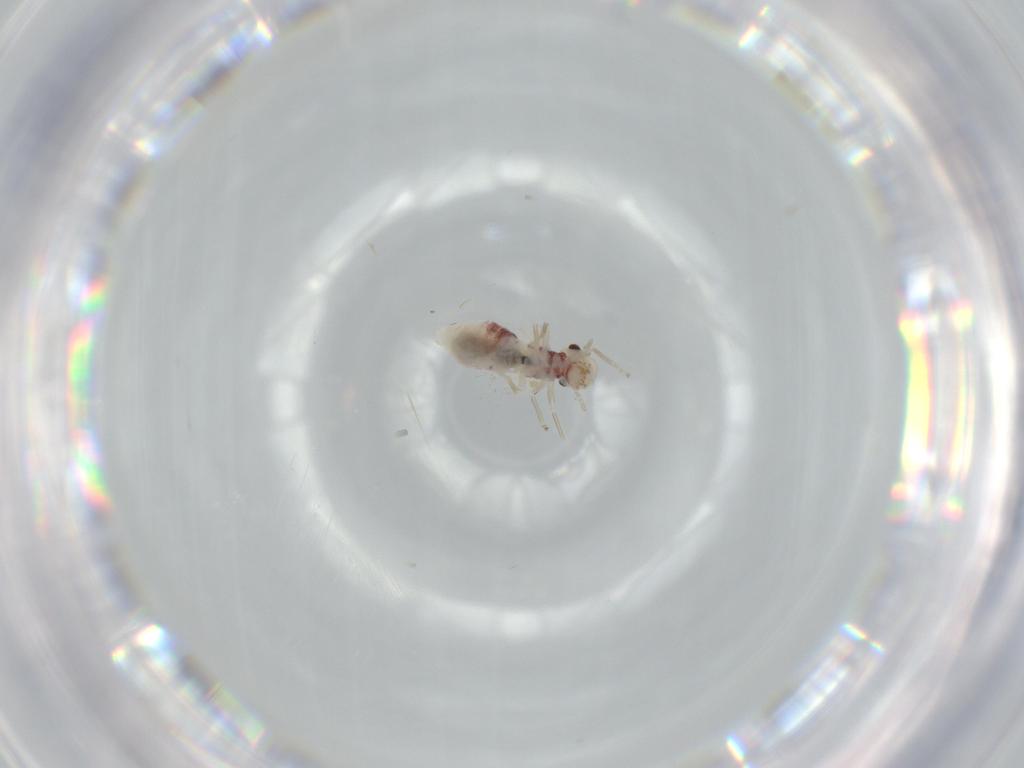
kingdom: Animalia
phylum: Arthropoda
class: Insecta
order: Psocodea
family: Caeciliusidae
